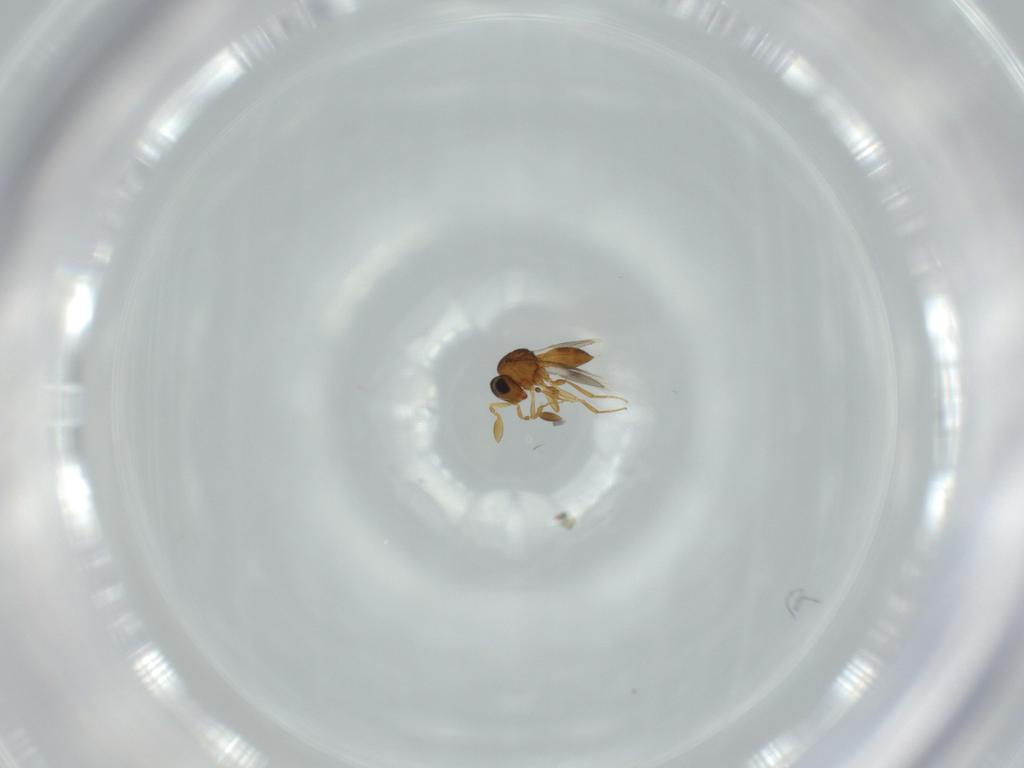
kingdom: Animalia
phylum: Arthropoda
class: Insecta
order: Hymenoptera
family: Scelionidae
